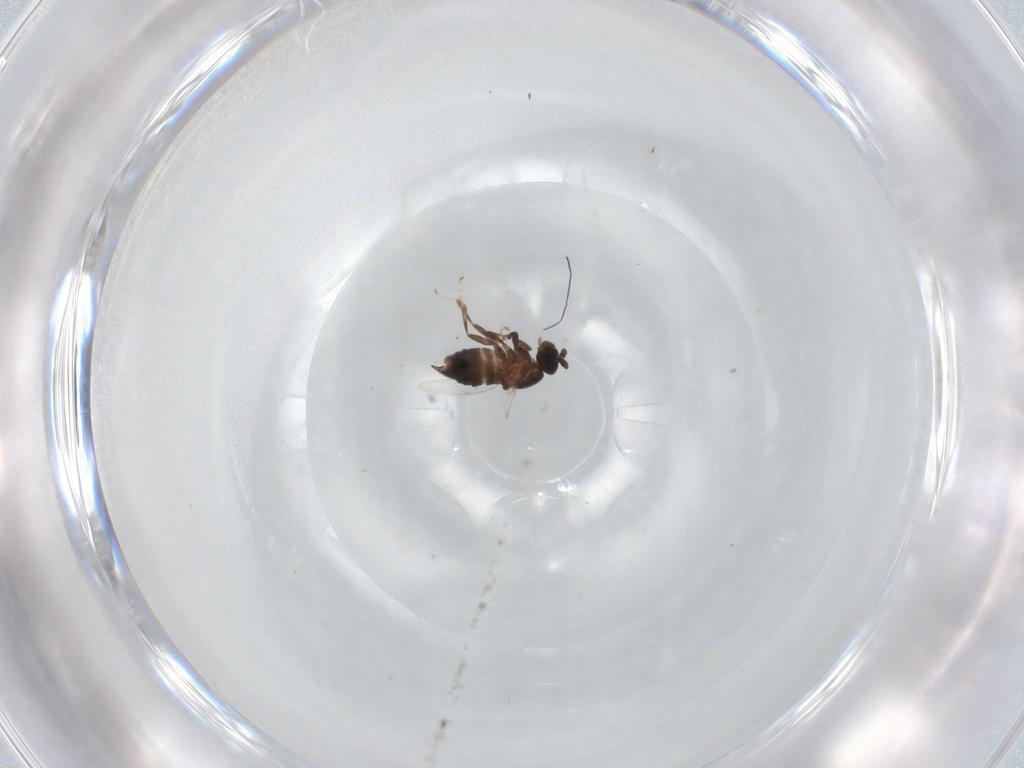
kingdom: Animalia
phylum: Arthropoda
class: Insecta
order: Diptera
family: Scatopsidae
